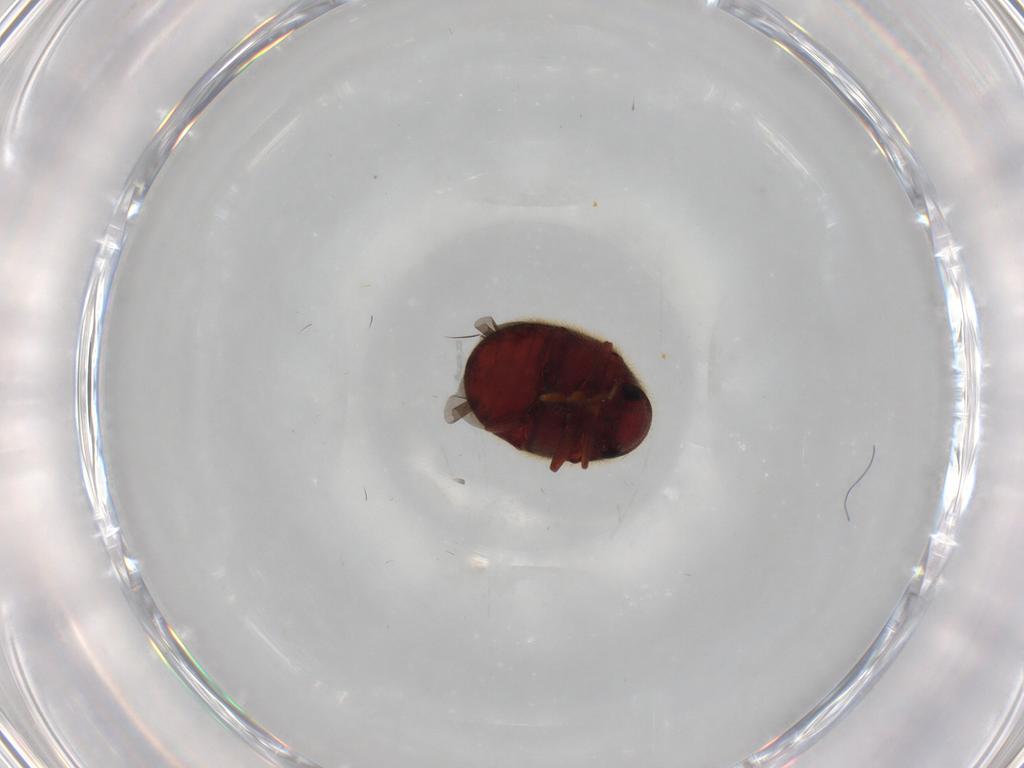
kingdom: Animalia
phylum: Arthropoda
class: Insecta
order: Coleoptera
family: Ptinidae
